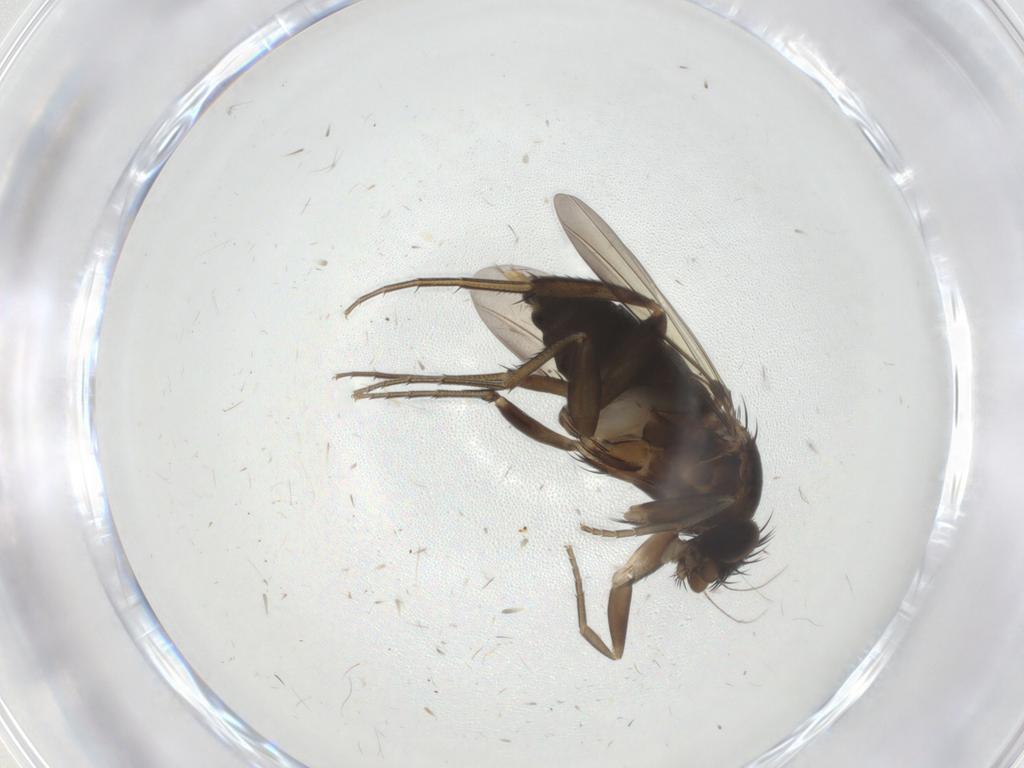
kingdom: Animalia
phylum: Arthropoda
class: Insecta
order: Diptera
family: Phoridae
